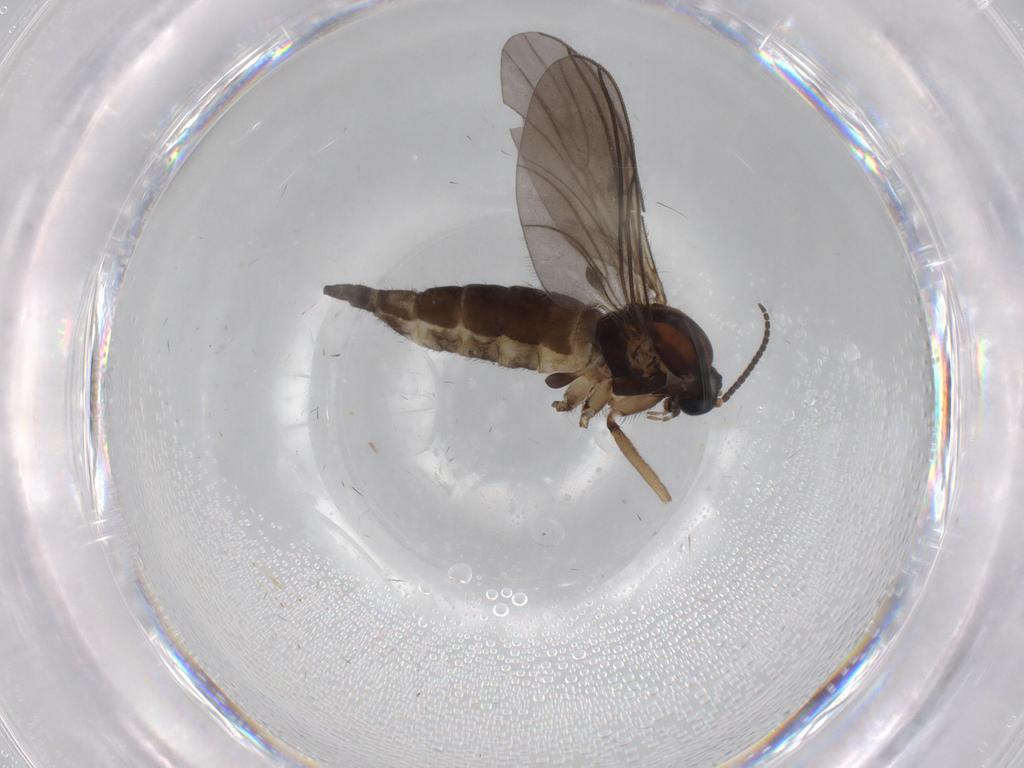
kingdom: Animalia
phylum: Arthropoda
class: Insecta
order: Diptera
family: Sciaridae
